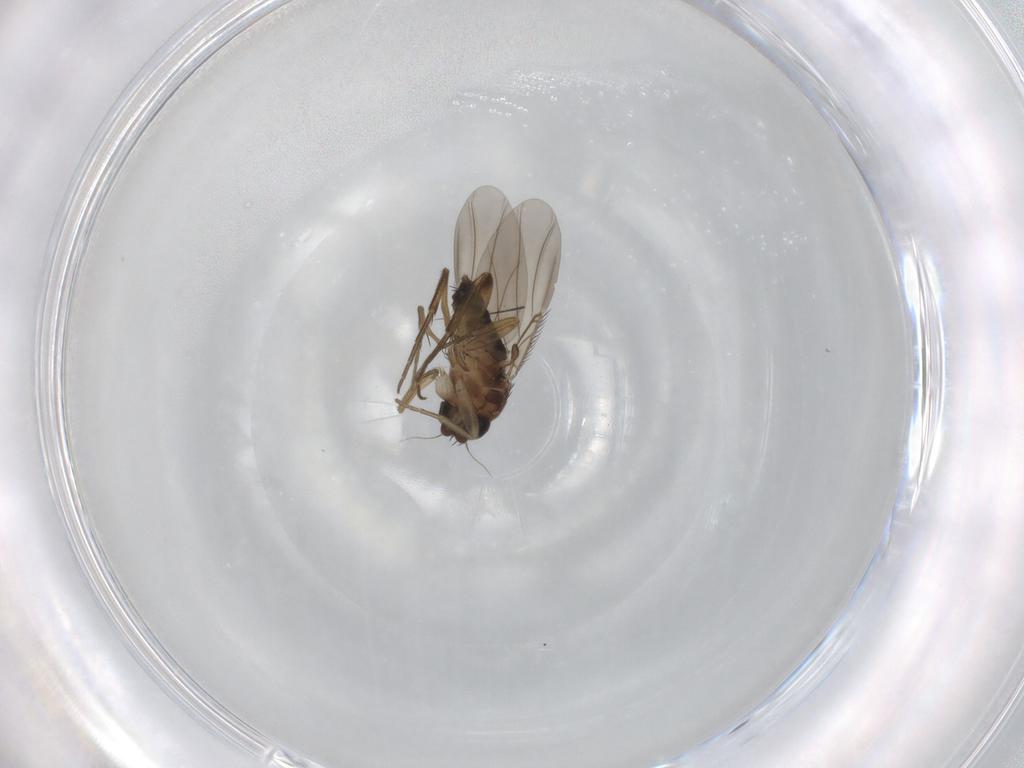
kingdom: Animalia
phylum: Arthropoda
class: Insecta
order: Diptera
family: Phoridae
